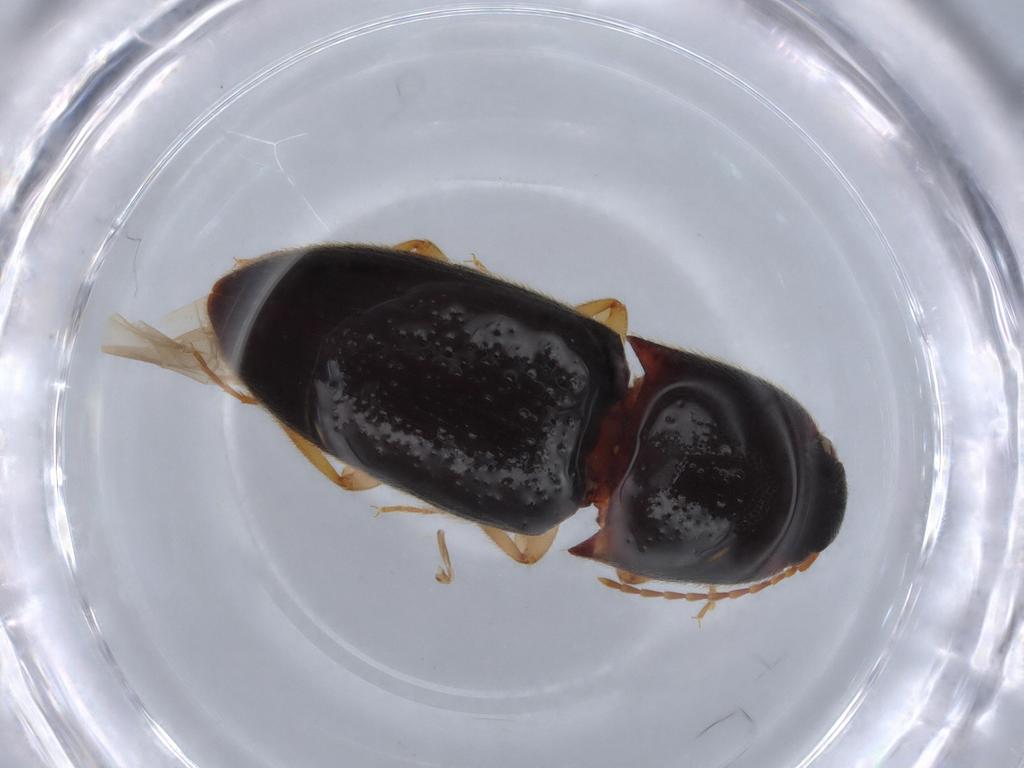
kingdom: Animalia
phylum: Arthropoda
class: Insecta
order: Coleoptera
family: Elateridae
